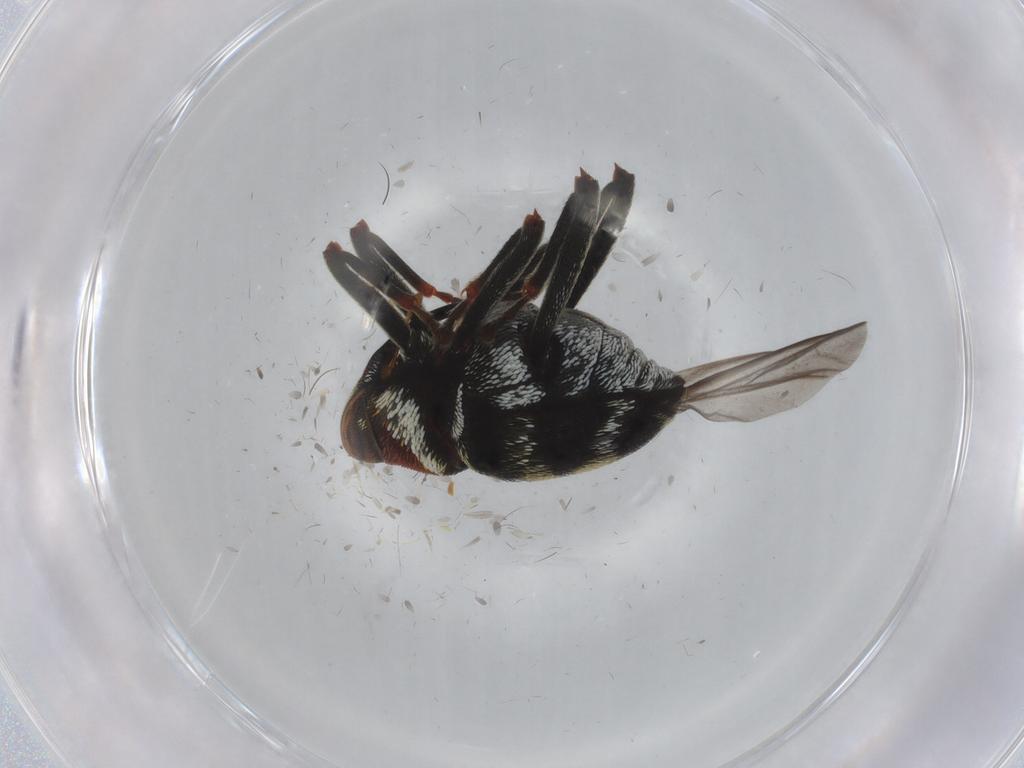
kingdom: Animalia
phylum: Arthropoda
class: Insecta
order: Coleoptera
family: Curculionidae
